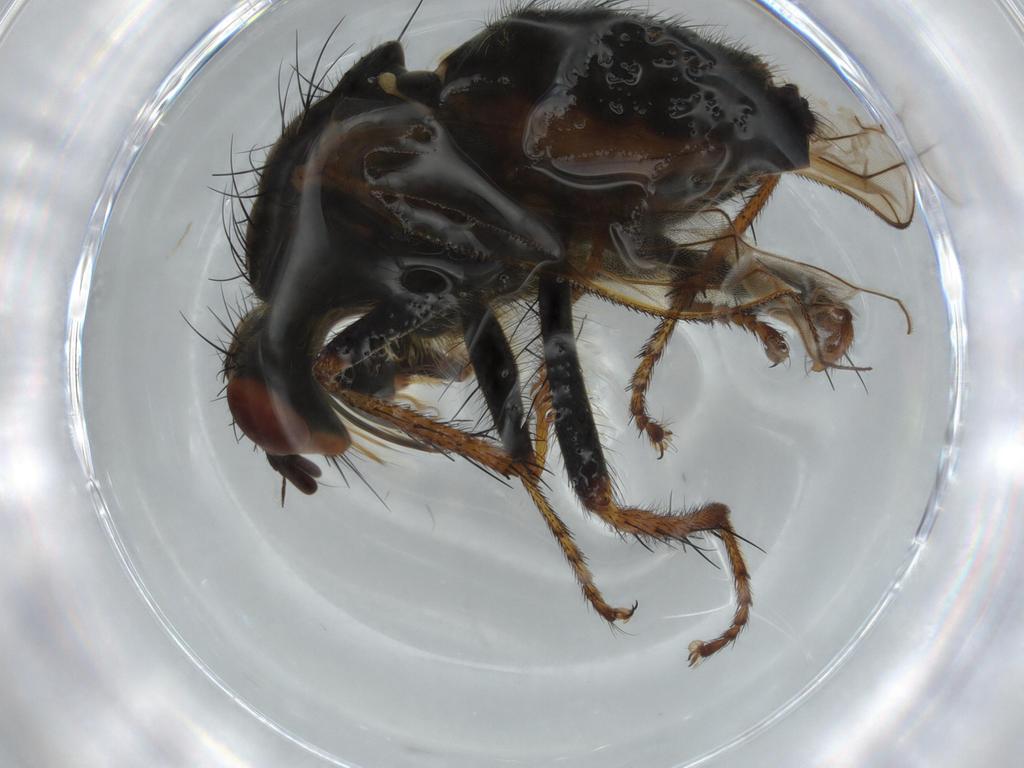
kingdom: Animalia
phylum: Arthropoda
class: Insecta
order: Diptera
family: Scathophagidae
